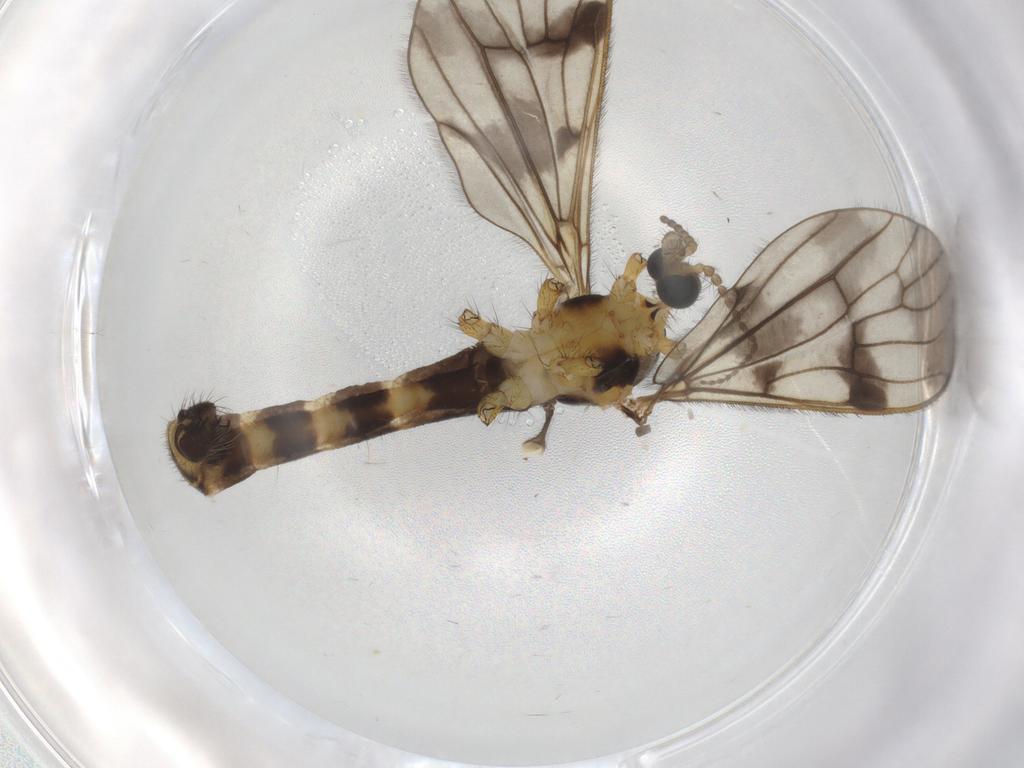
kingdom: Animalia
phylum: Arthropoda
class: Insecta
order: Diptera
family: Limoniidae
